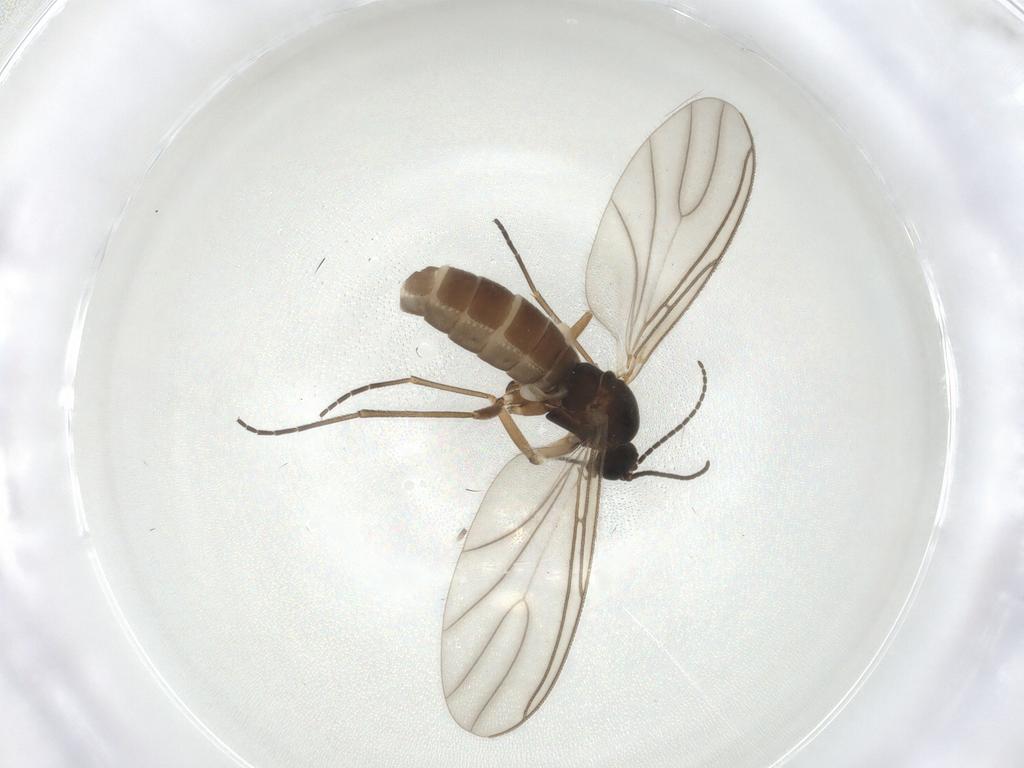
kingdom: Animalia
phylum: Arthropoda
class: Insecta
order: Diptera
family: Sciaridae
